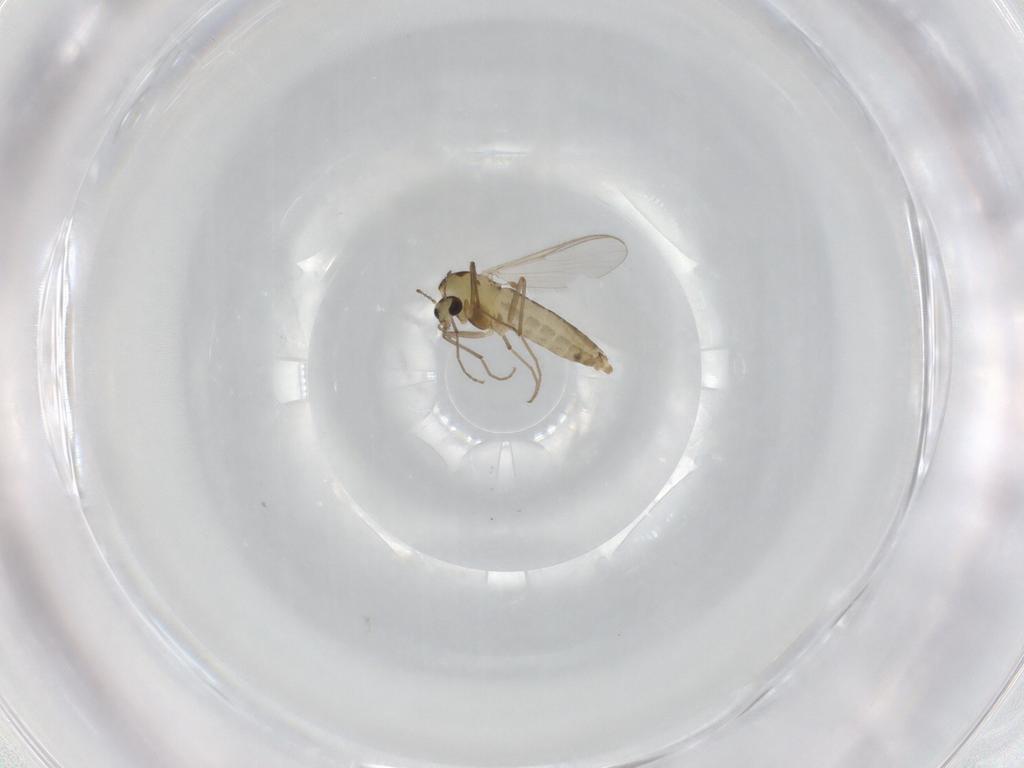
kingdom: Animalia
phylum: Arthropoda
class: Insecta
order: Diptera
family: Chironomidae
